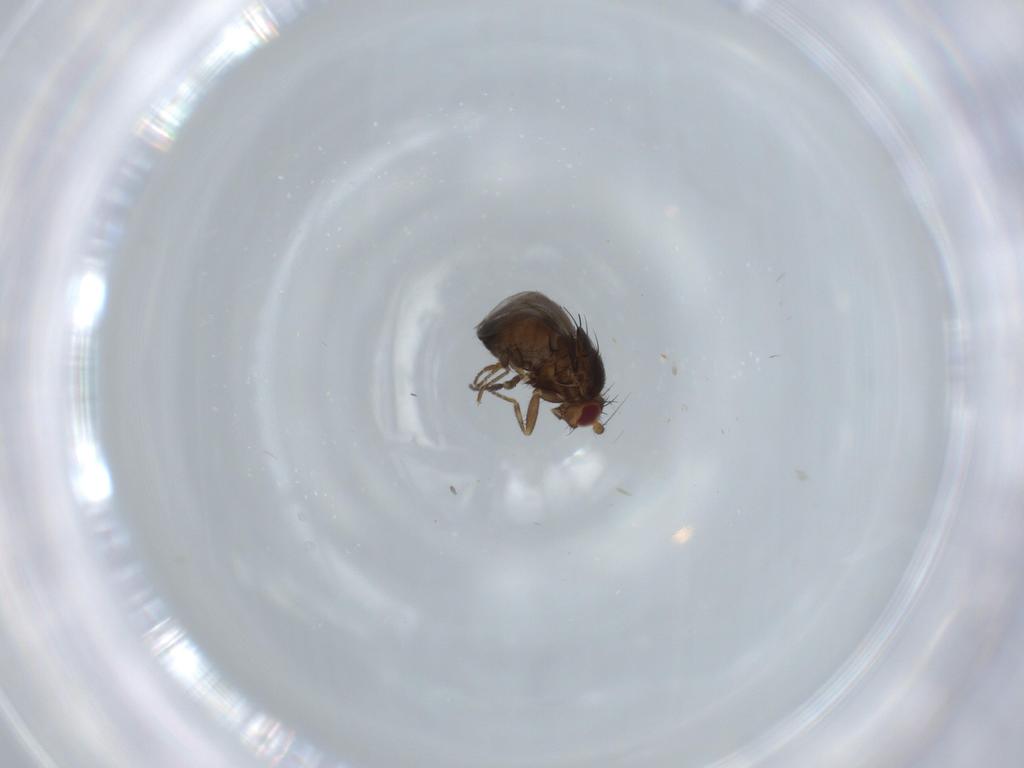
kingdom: Animalia
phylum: Arthropoda
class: Insecta
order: Diptera
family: Sphaeroceridae
